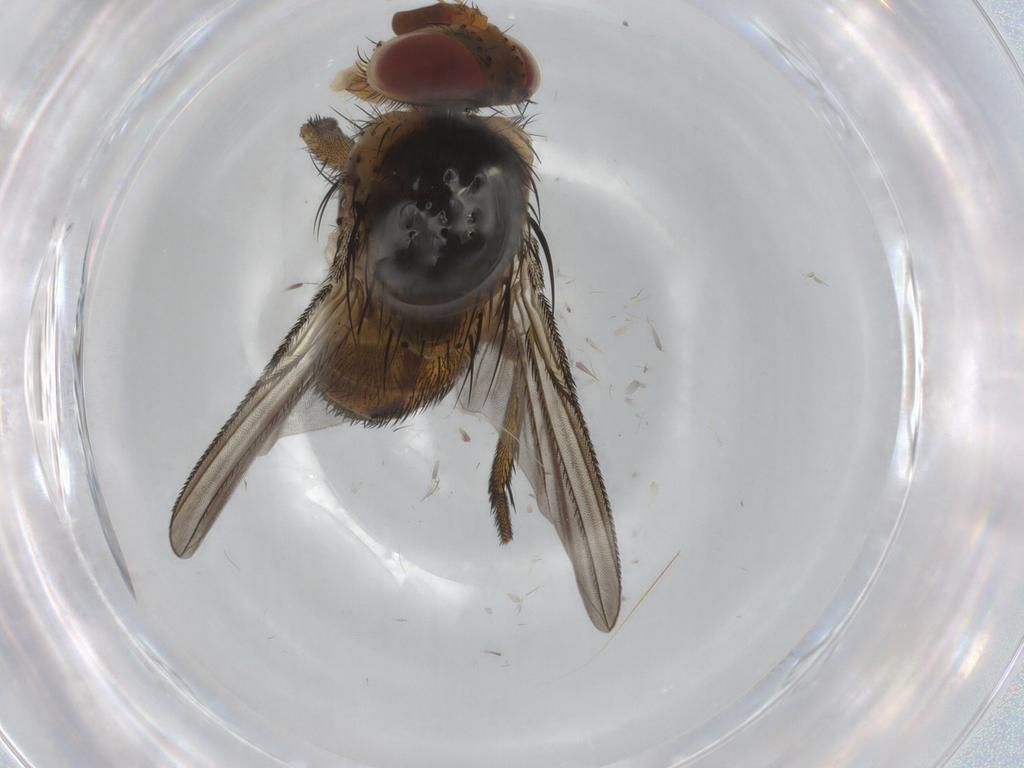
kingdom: Animalia
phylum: Arthropoda
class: Insecta
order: Diptera
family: Tachinidae
